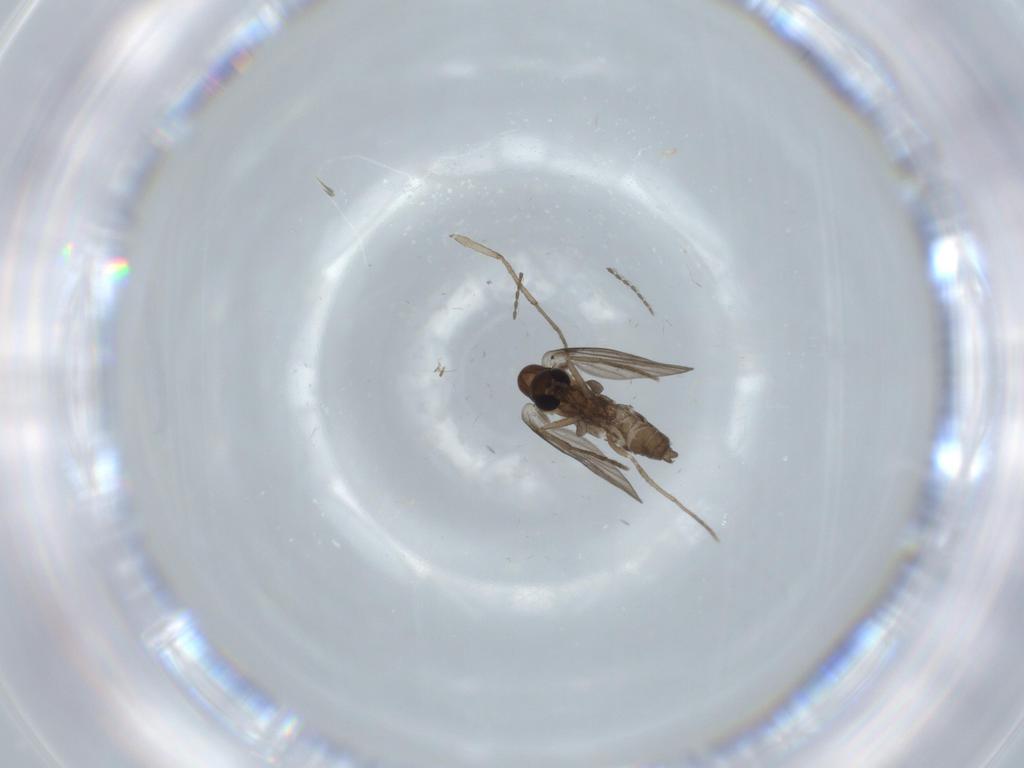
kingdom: Animalia
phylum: Arthropoda
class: Insecta
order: Diptera
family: Psychodidae
